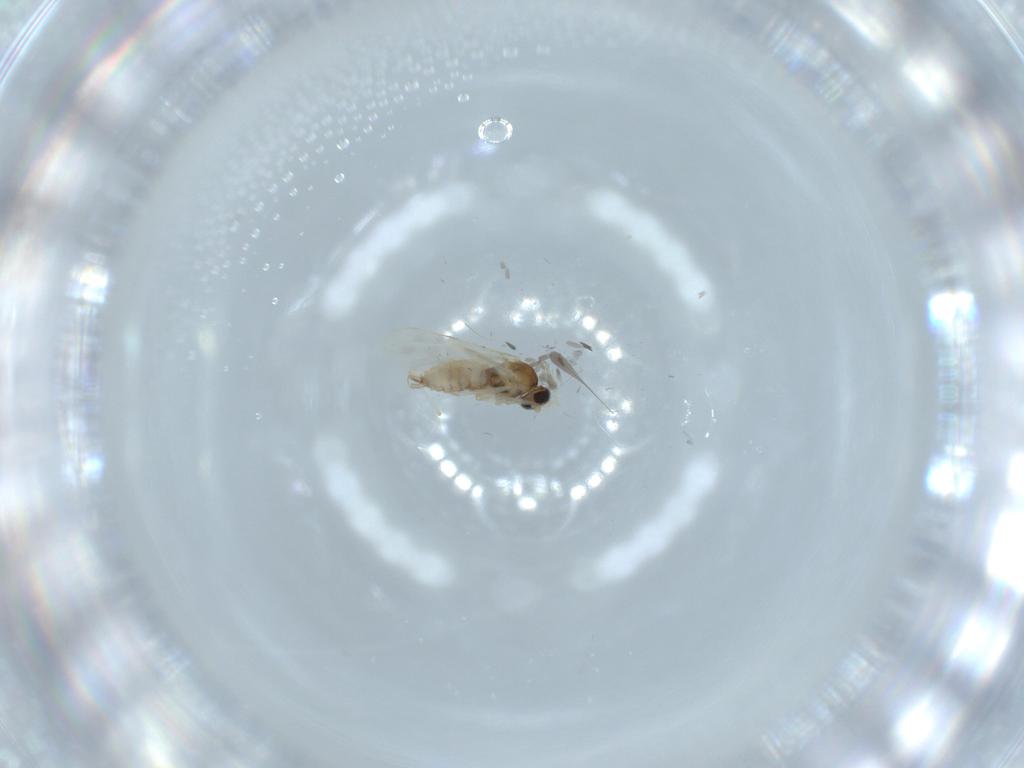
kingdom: Animalia
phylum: Arthropoda
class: Insecta
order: Diptera
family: Cecidomyiidae
